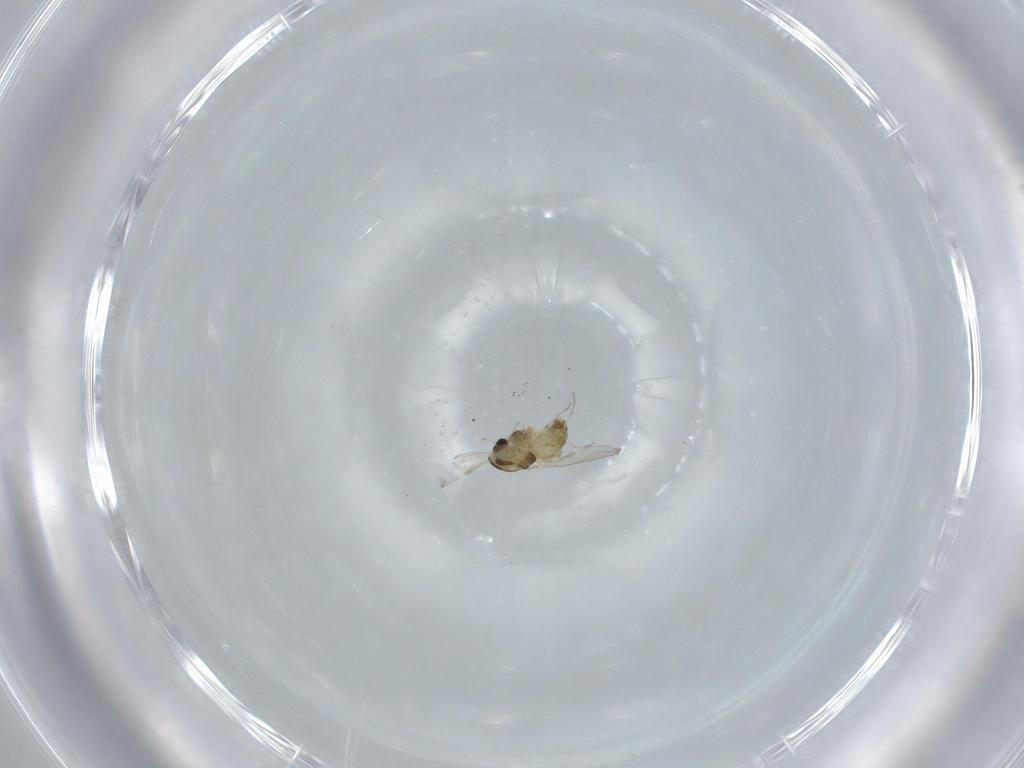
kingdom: Animalia
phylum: Arthropoda
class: Insecta
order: Diptera
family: Chironomidae
